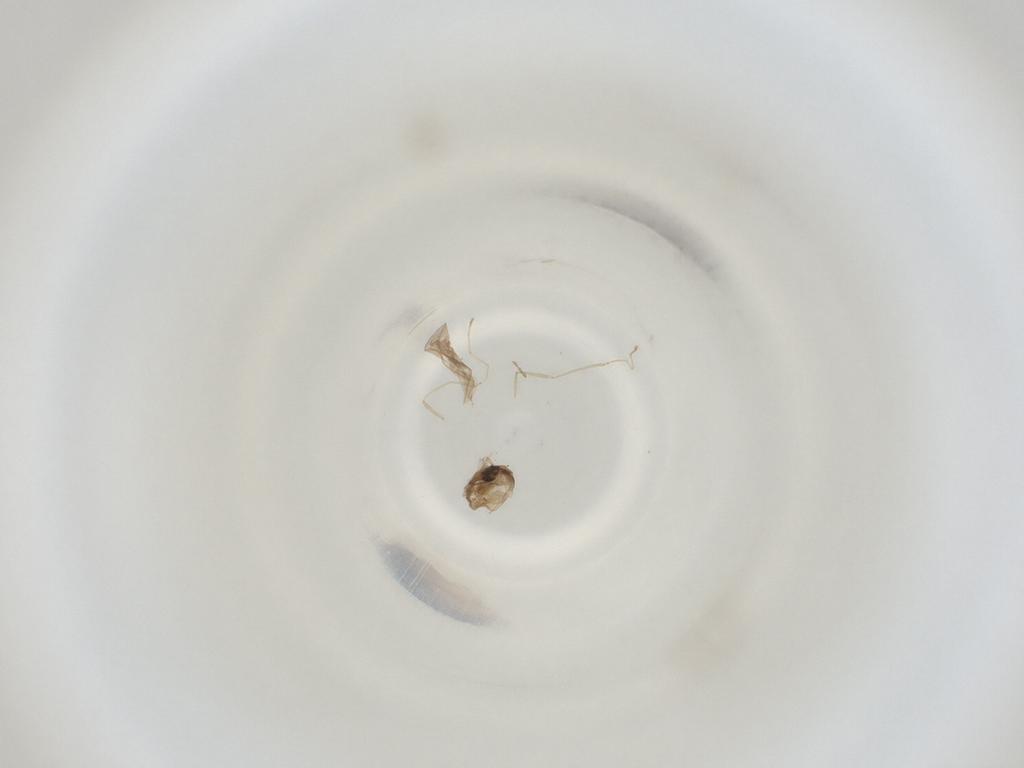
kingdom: Animalia
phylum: Arthropoda
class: Insecta
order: Diptera
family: Cecidomyiidae
